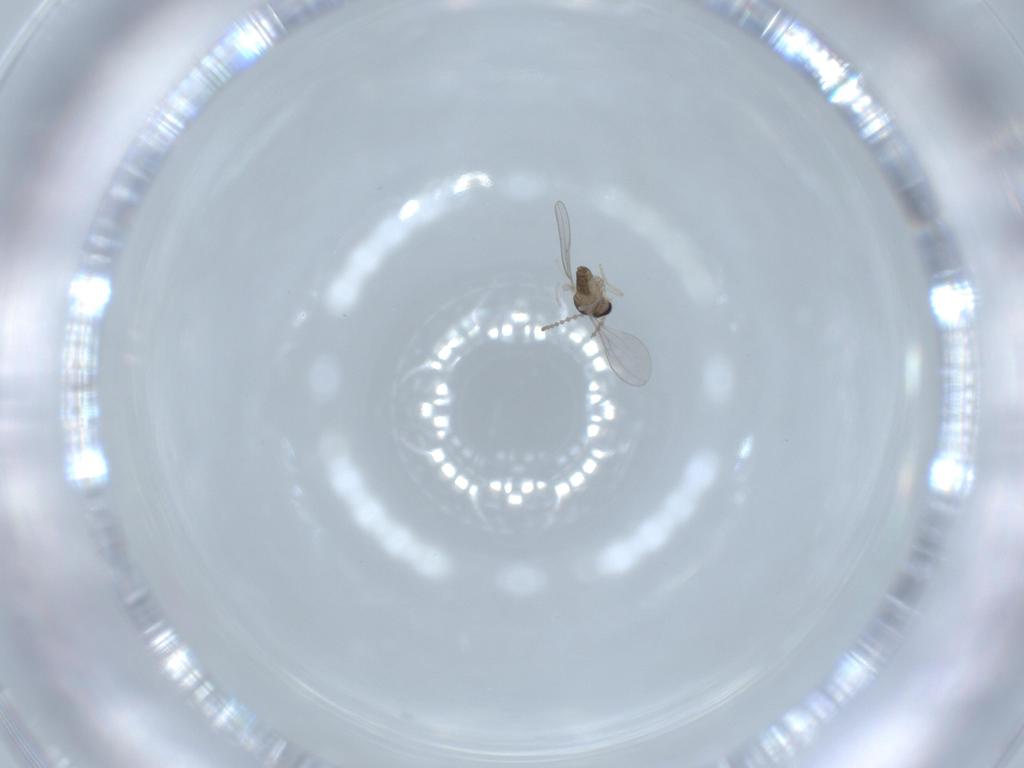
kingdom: Animalia
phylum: Arthropoda
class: Insecta
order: Diptera
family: Cecidomyiidae
